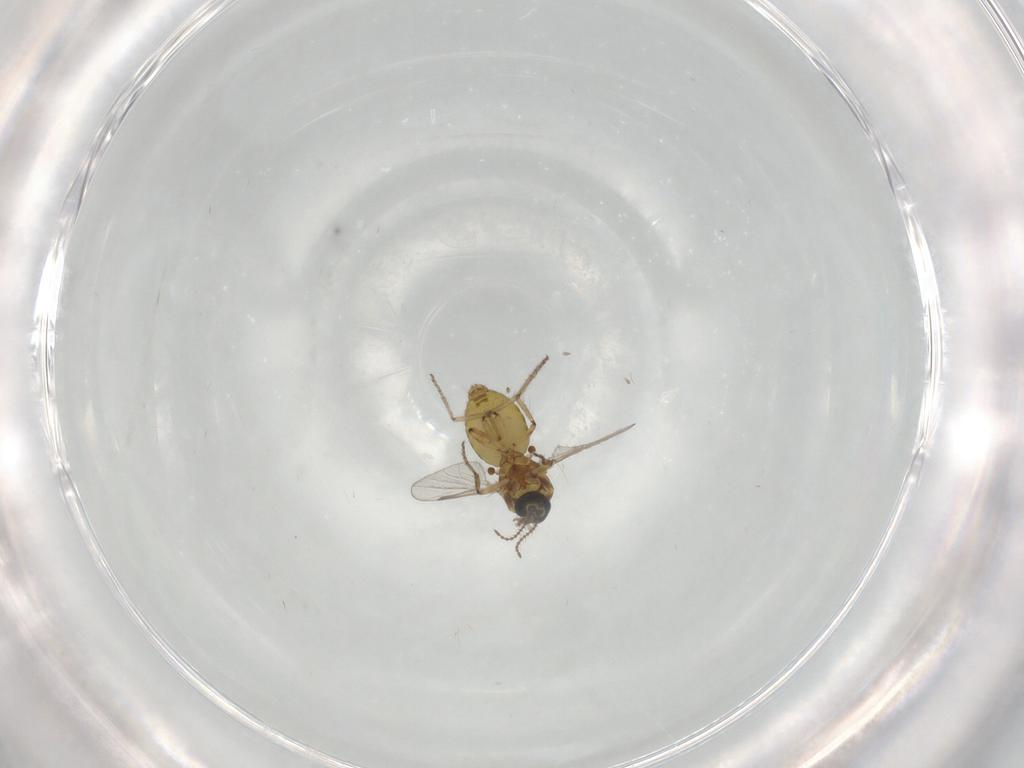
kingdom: Animalia
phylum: Arthropoda
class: Insecta
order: Diptera
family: Ceratopogonidae
